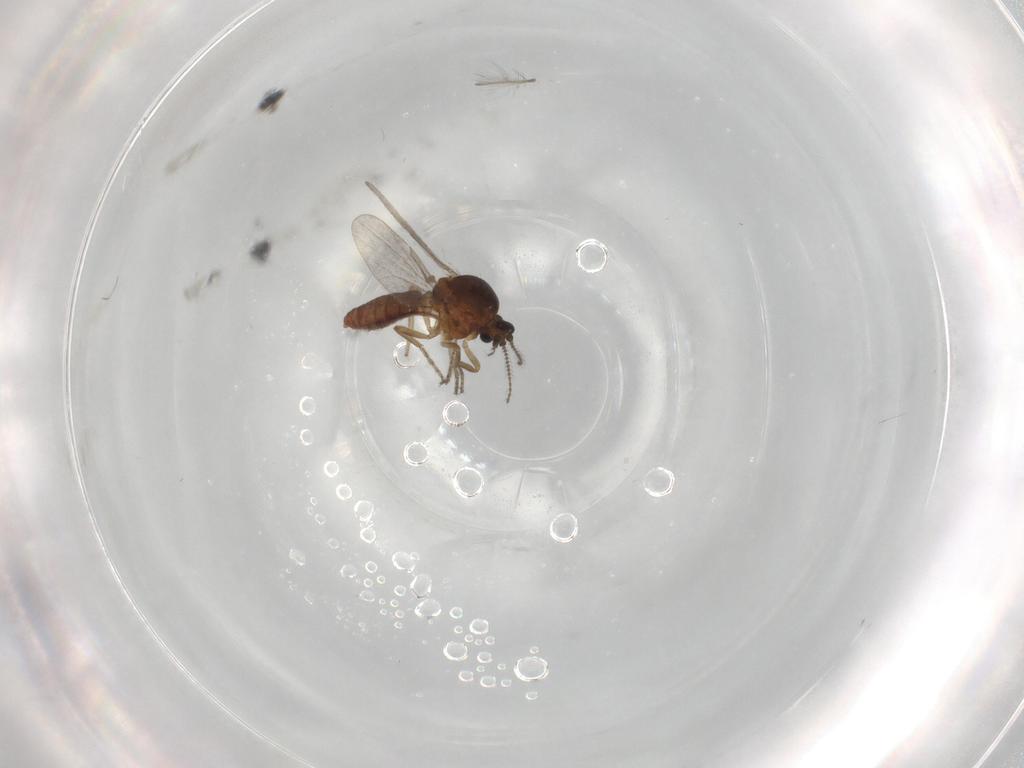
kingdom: Animalia
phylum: Arthropoda
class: Insecta
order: Diptera
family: Chironomidae
